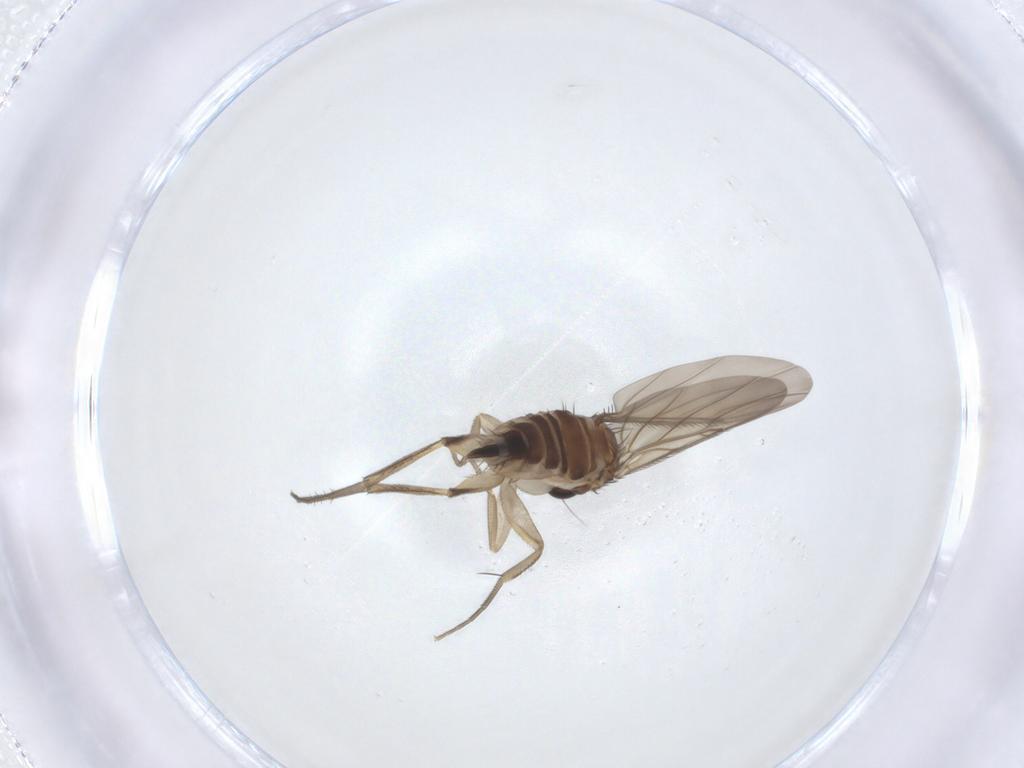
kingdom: Animalia
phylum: Arthropoda
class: Insecta
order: Diptera
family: Phoridae
